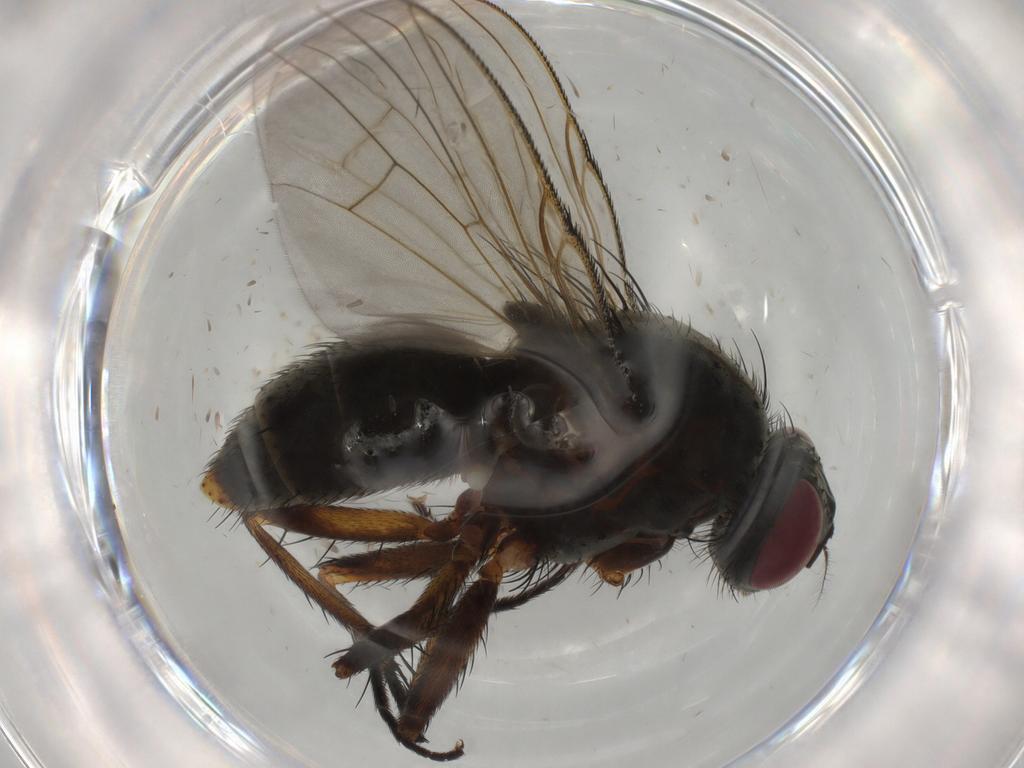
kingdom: Animalia
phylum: Arthropoda
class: Insecta
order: Diptera
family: Muscidae
